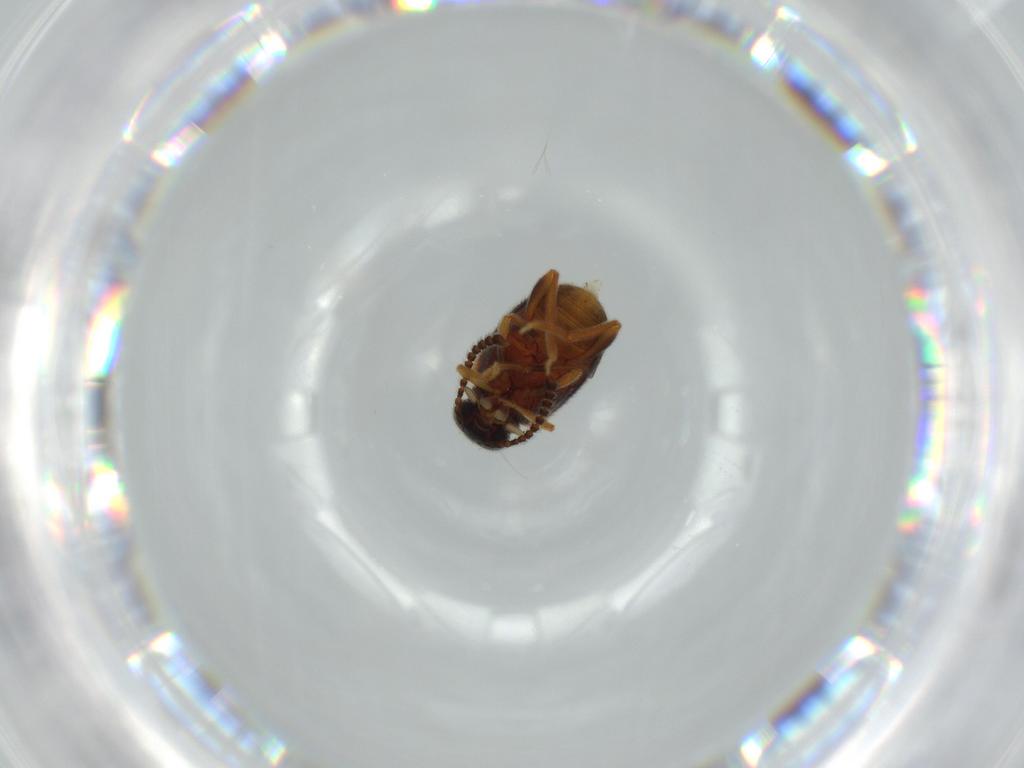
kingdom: Animalia
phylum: Arthropoda
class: Insecta
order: Coleoptera
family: Aderidae
